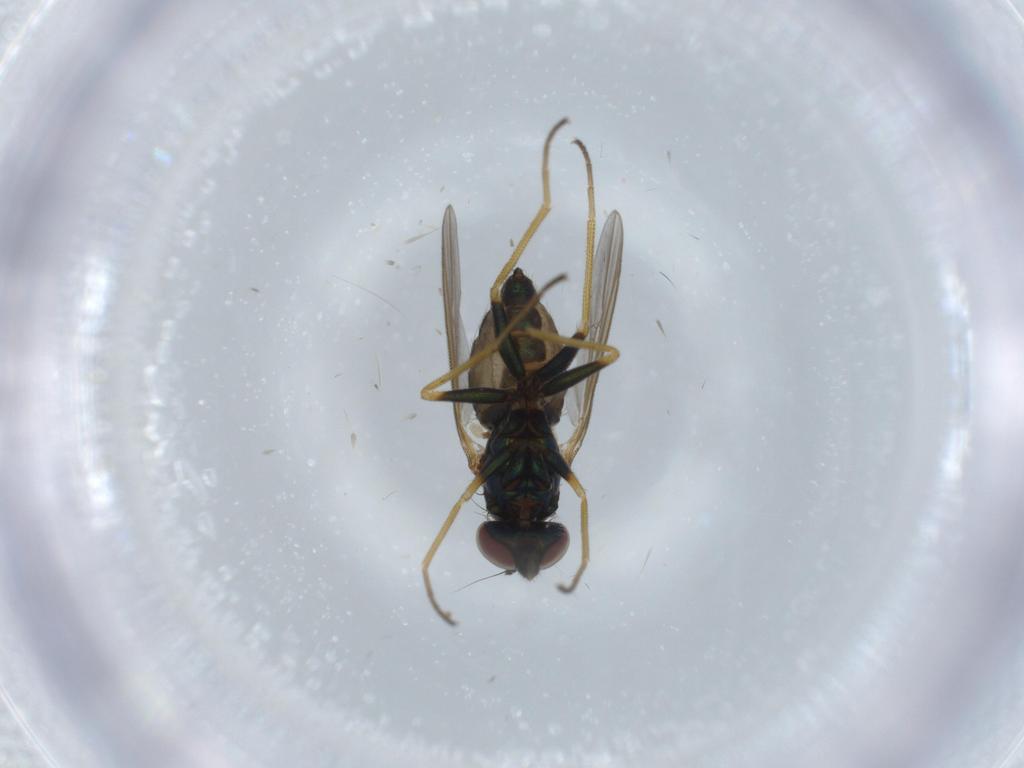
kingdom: Animalia
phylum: Arthropoda
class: Insecta
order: Diptera
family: Dolichopodidae
